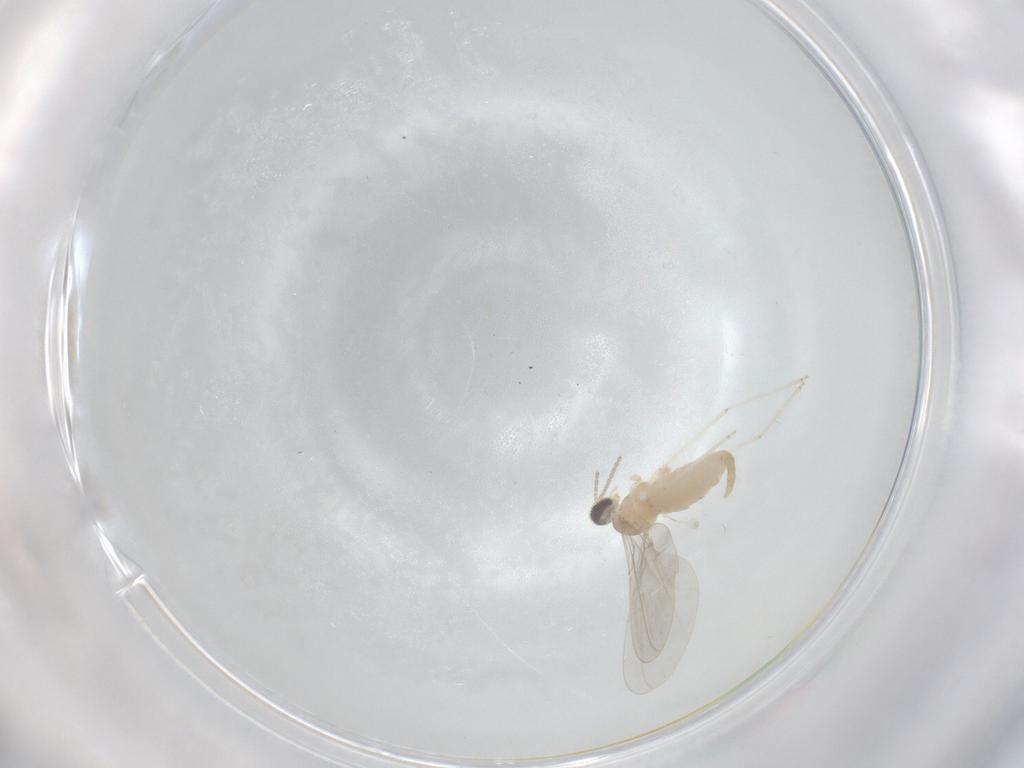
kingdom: Animalia
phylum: Arthropoda
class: Insecta
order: Diptera
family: Cecidomyiidae
